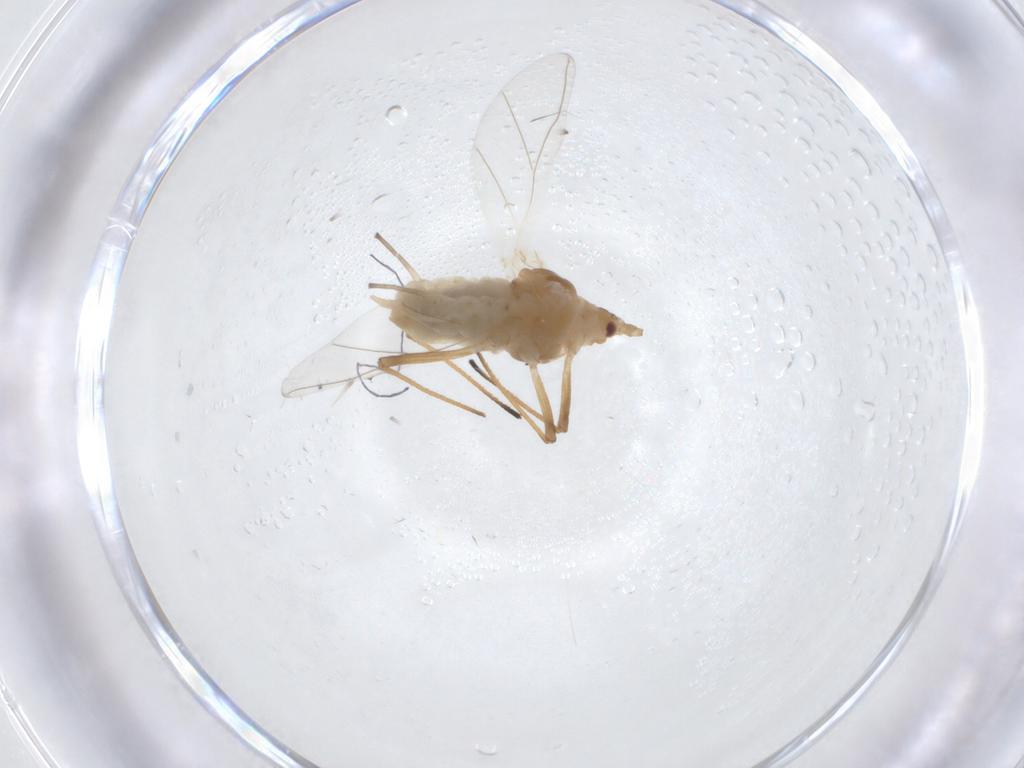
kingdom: Animalia
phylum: Arthropoda
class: Insecta
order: Hemiptera
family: Aphididae
